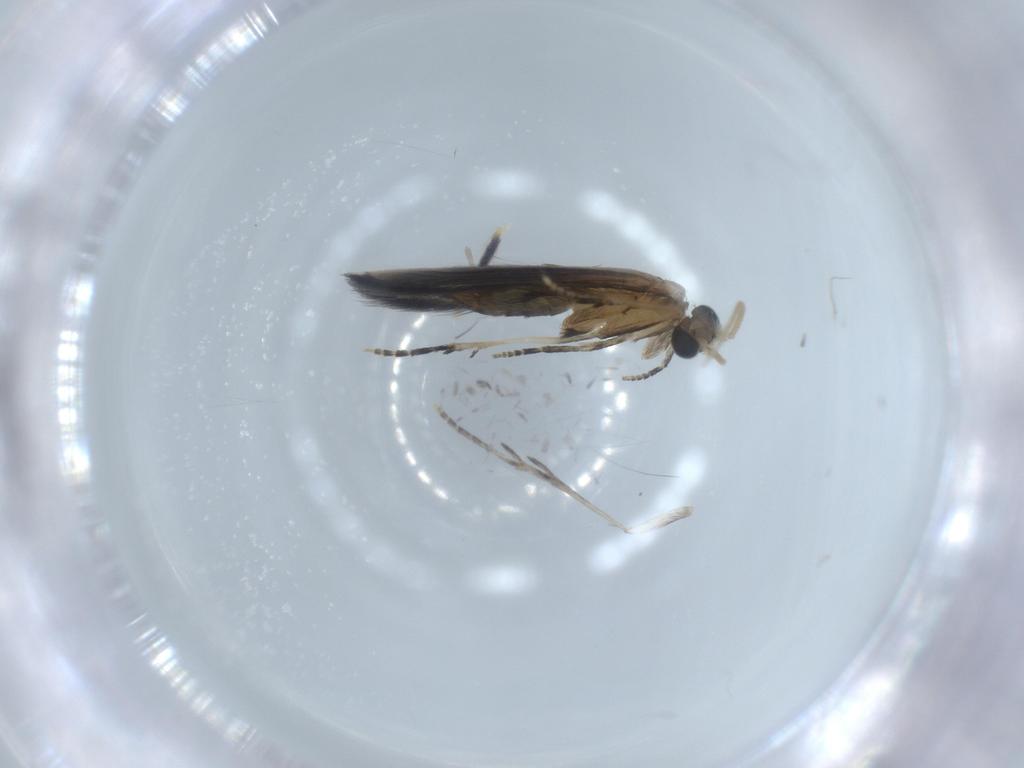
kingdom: Animalia
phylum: Arthropoda
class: Insecta
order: Trichoptera
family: Hydroptilidae
